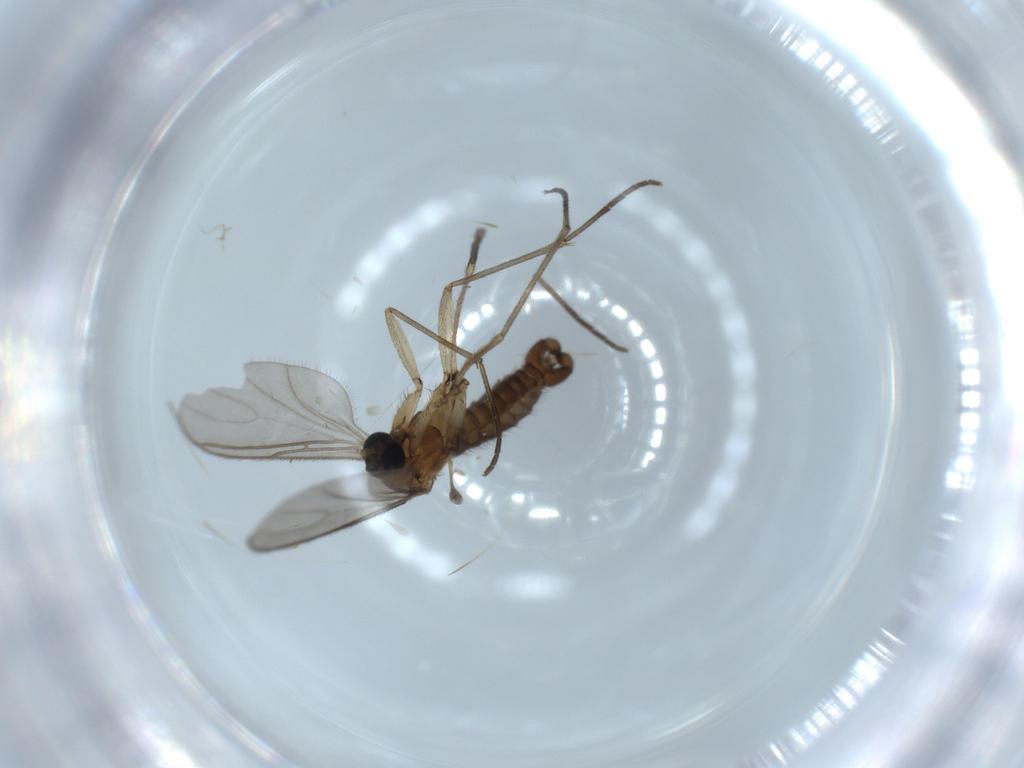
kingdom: Animalia
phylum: Arthropoda
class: Insecta
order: Diptera
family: Sciaridae
